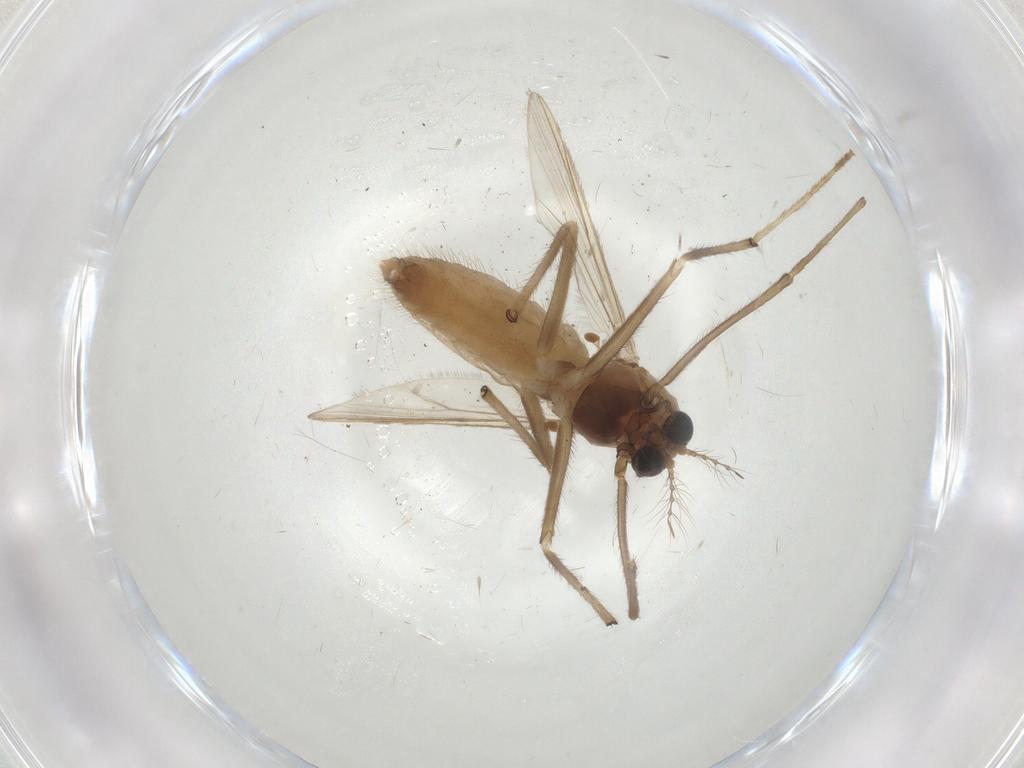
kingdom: Animalia
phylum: Arthropoda
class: Insecta
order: Diptera
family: Chironomidae
